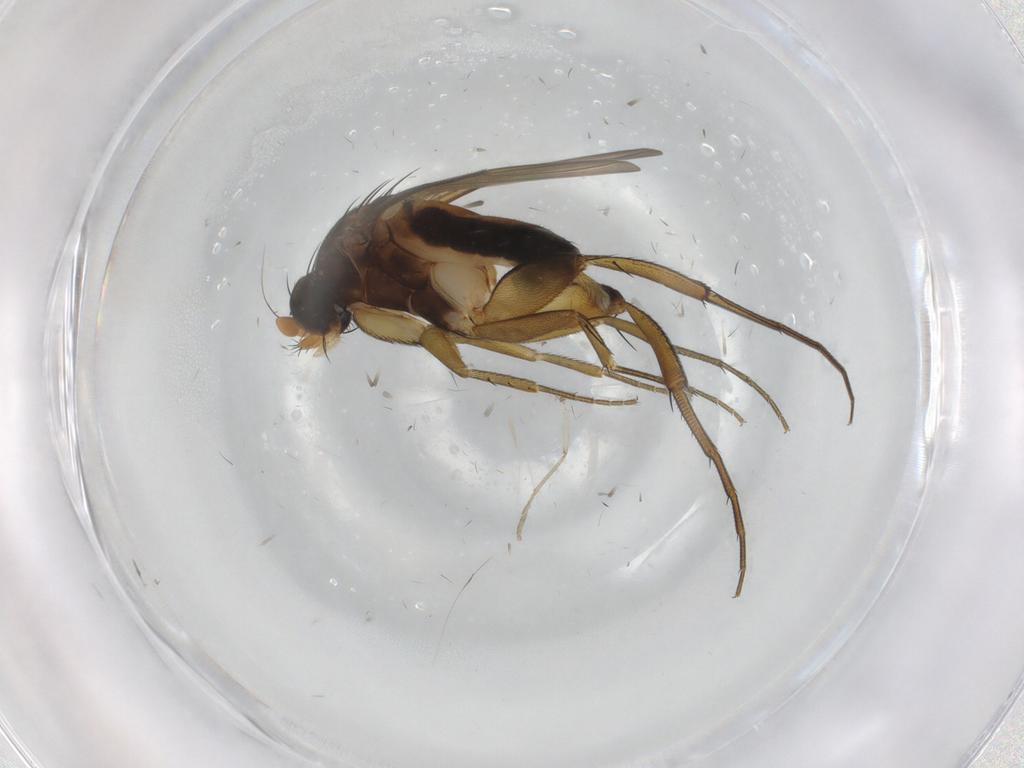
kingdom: Animalia
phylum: Arthropoda
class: Insecta
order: Diptera
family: Phoridae
